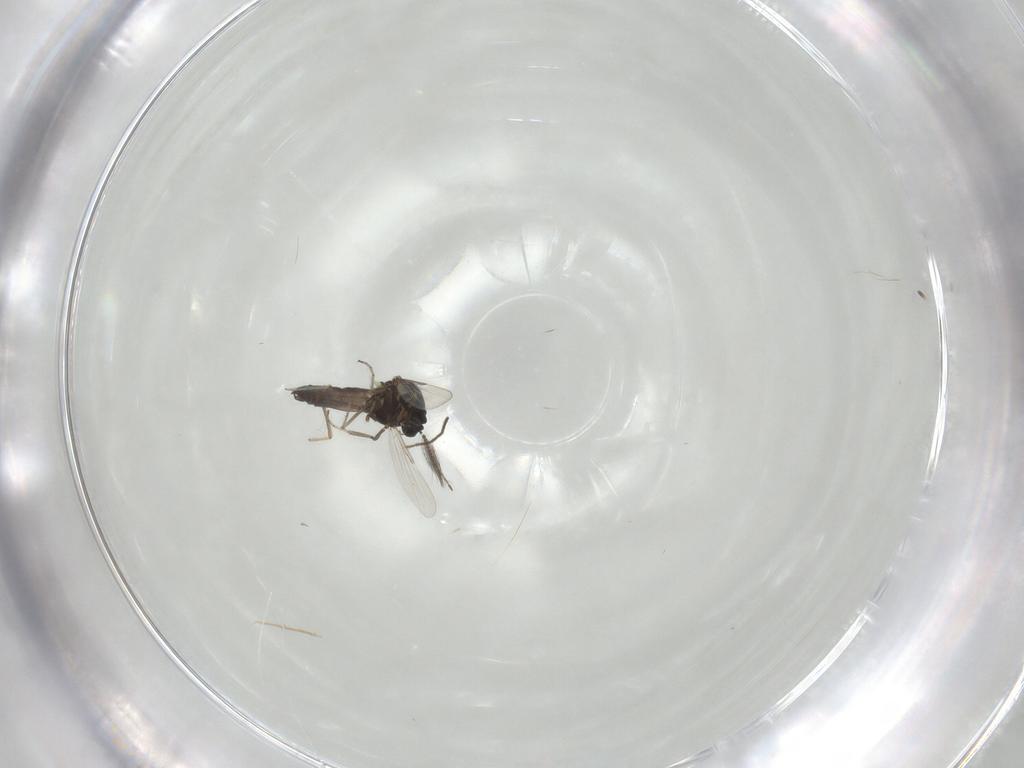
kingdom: Animalia
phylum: Arthropoda
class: Insecta
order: Diptera
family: Ceratopogonidae
